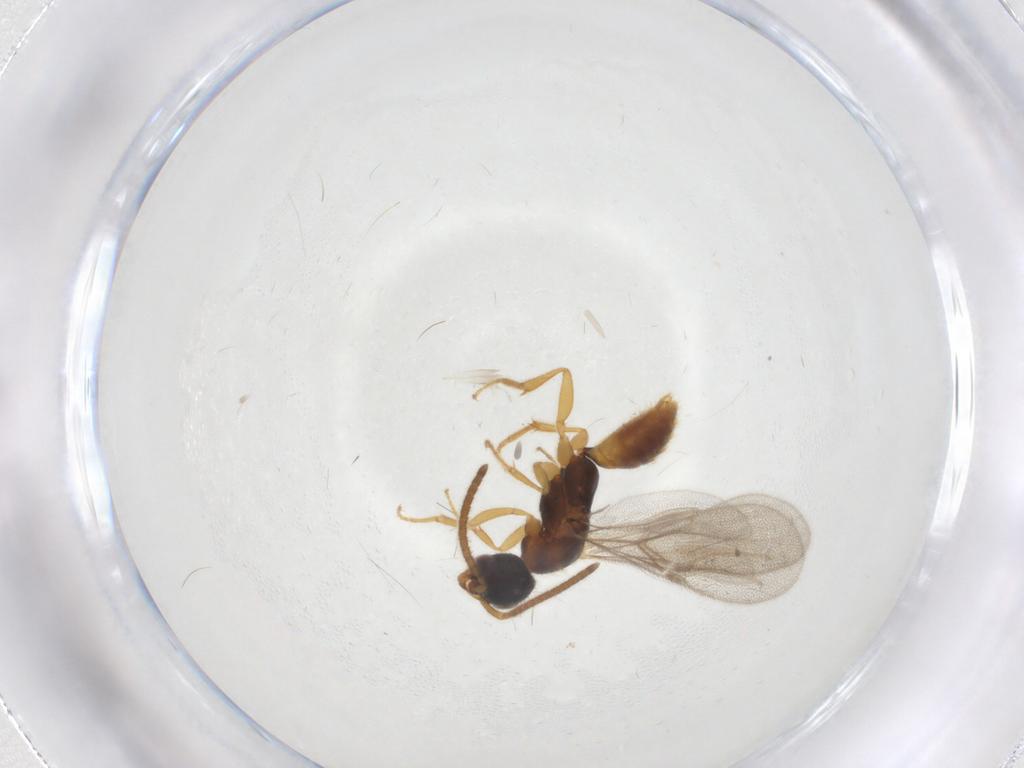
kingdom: Animalia
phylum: Arthropoda
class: Insecta
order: Hymenoptera
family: Bethylidae
